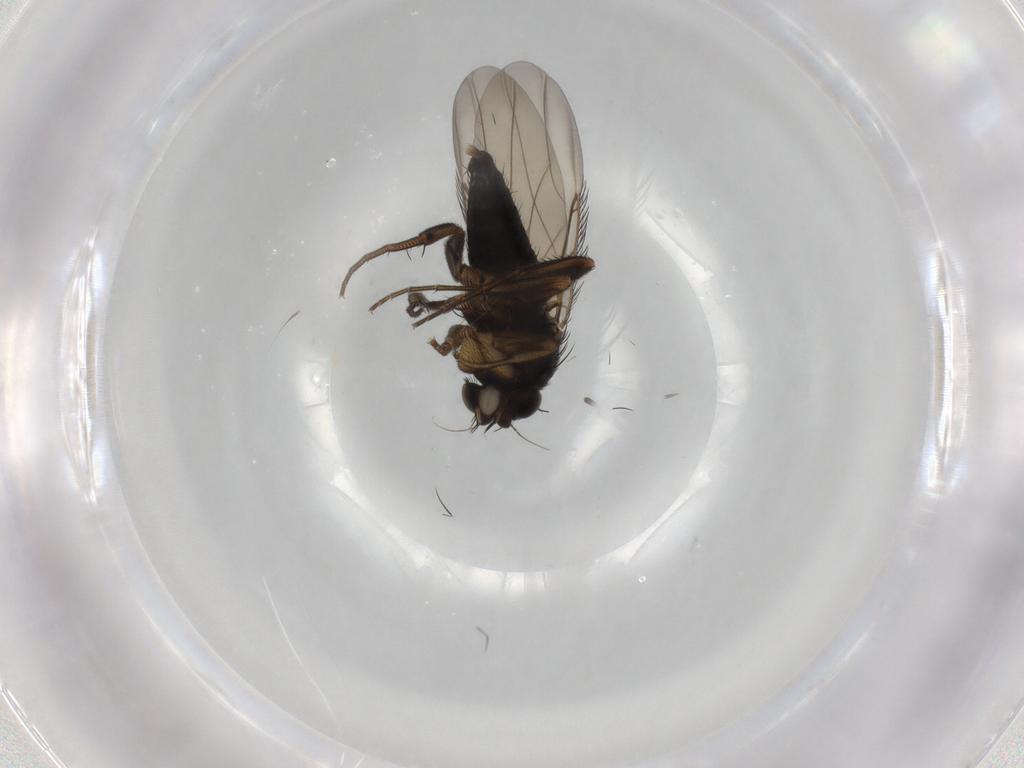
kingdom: Animalia
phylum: Arthropoda
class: Insecta
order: Diptera
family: Phoridae
